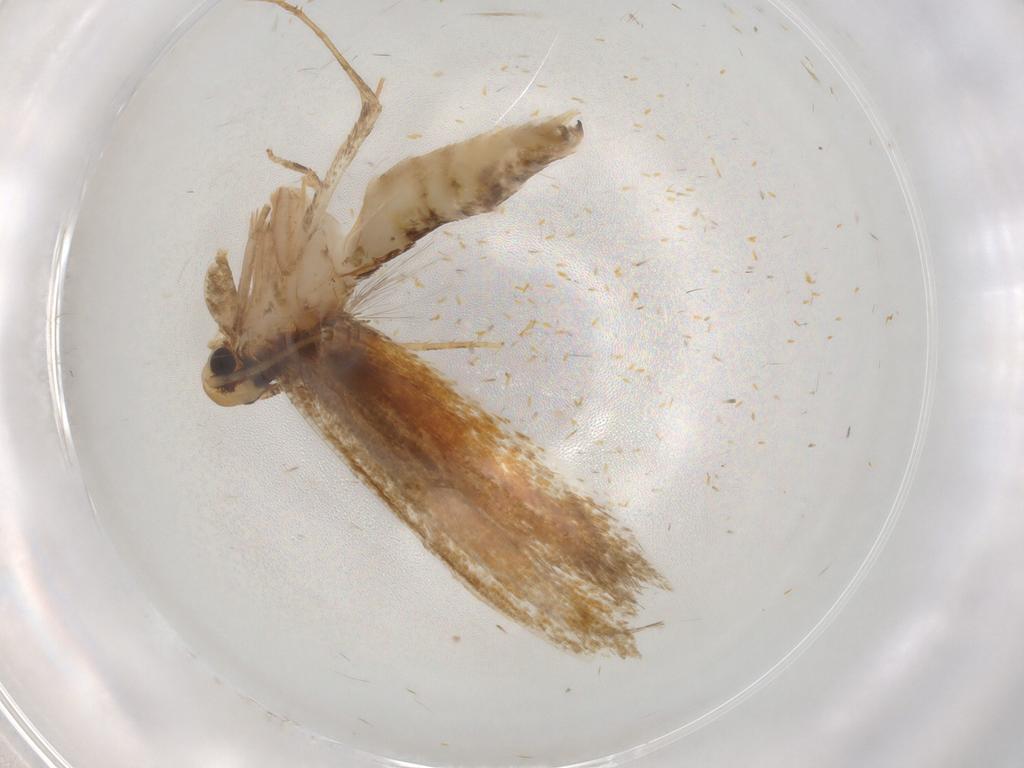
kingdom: Animalia
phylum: Arthropoda
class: Insecta
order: Lepidoptera
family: Tineidae
